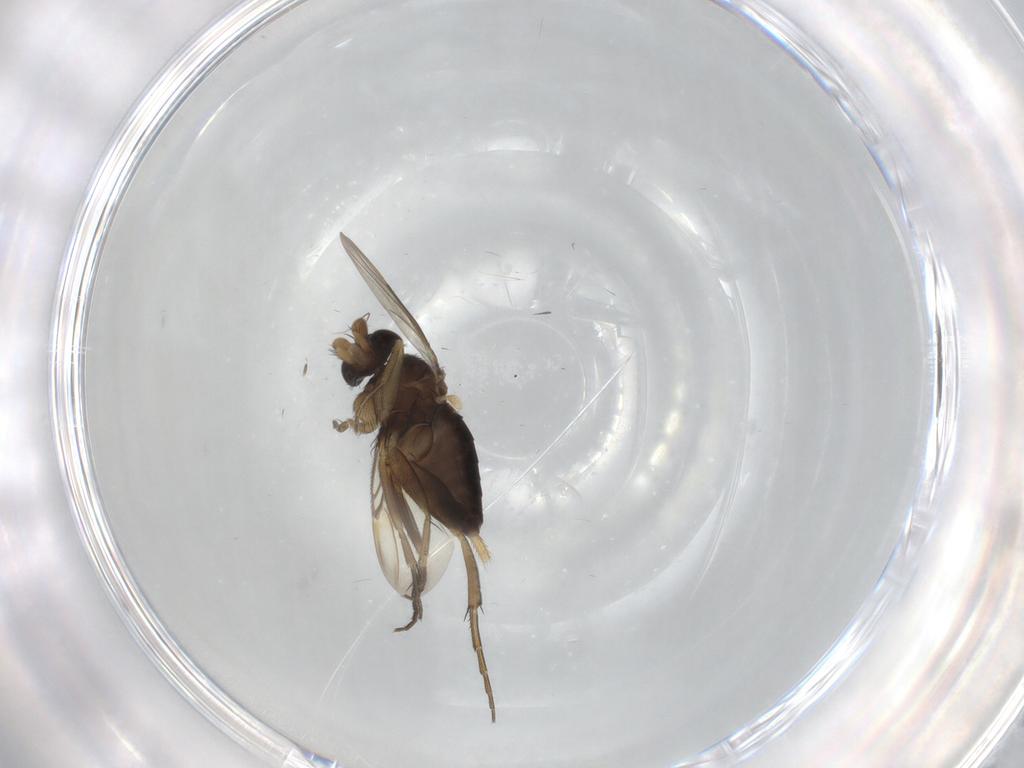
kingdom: Animalia
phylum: Arthropoda
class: Insecta
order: Diptera
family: Phoridae
